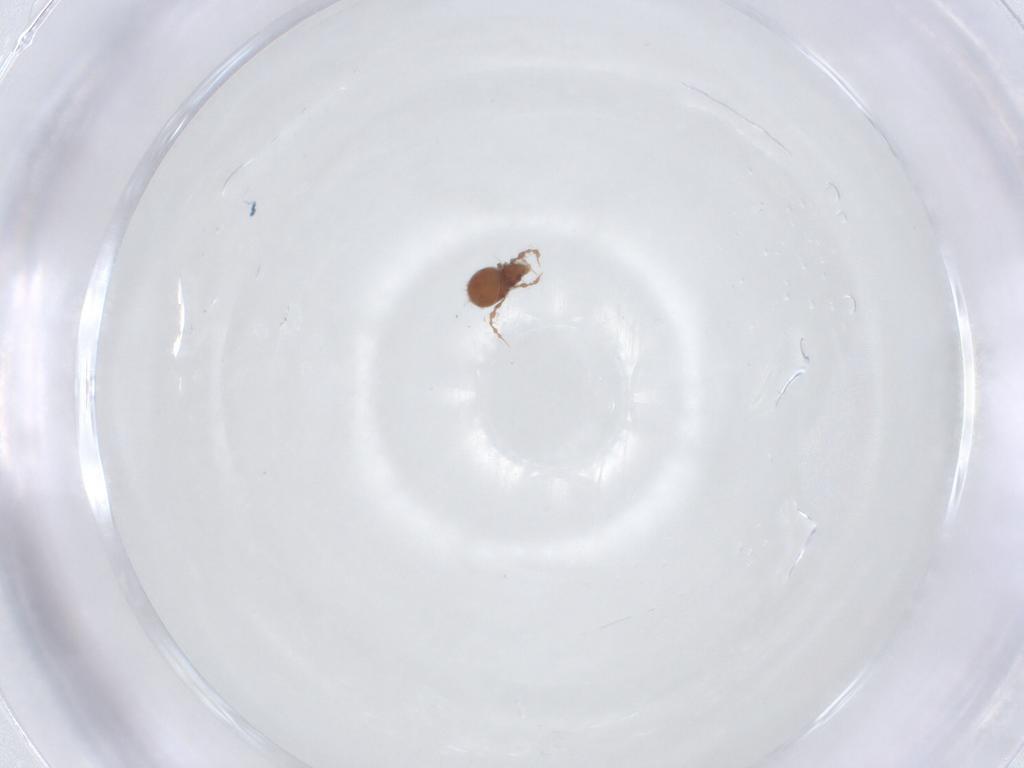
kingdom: Animalia
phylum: Arthropoda
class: Arachnida
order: Sarcoptiformes
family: Damaeidae
